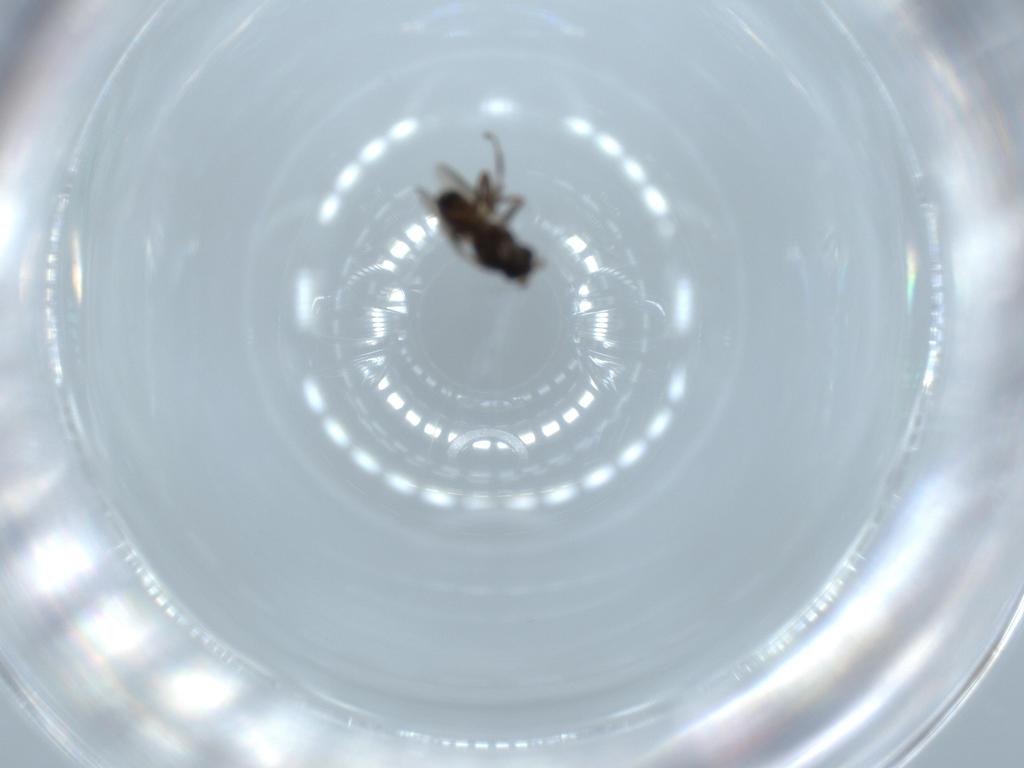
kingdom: Animalia
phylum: Arthropoda
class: Insecta
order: Diptera
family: Sphaeroceridae
